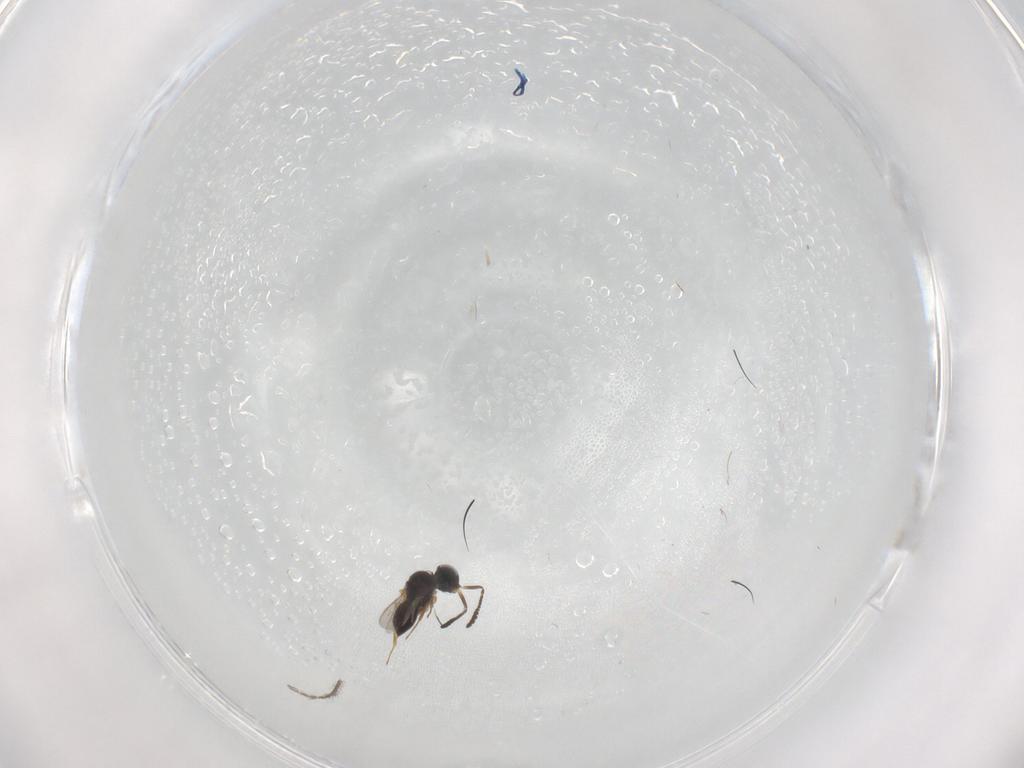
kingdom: Animalia
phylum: Arthropoda
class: Insecta
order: Hymenoptera
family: Scelionidae
